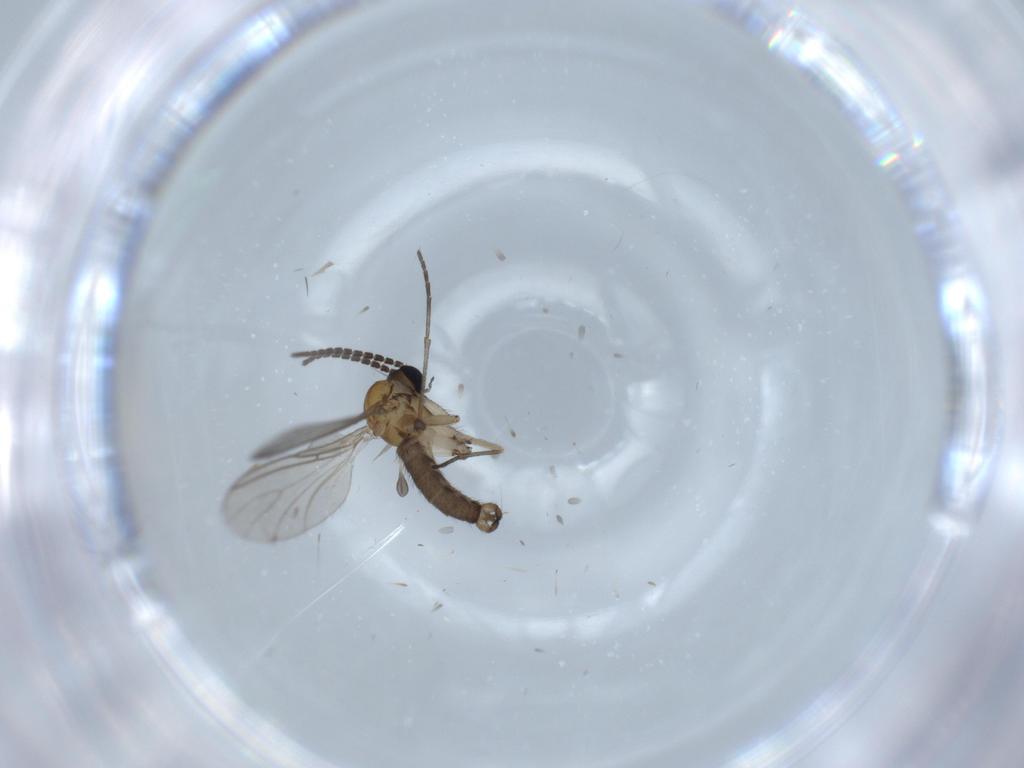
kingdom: Animalia
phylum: Arthropoda
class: Insecta
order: Diptera
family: Sciaridae
